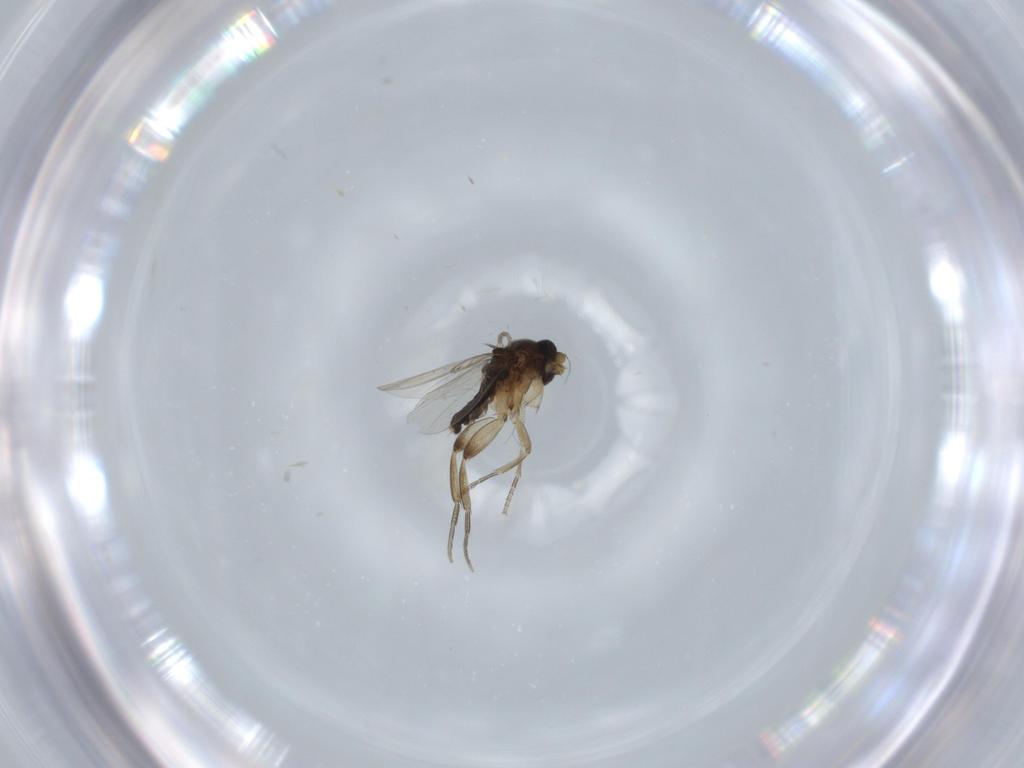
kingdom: Animalia
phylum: Arthropoda
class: Insecta
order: Diptera
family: Phoridae
